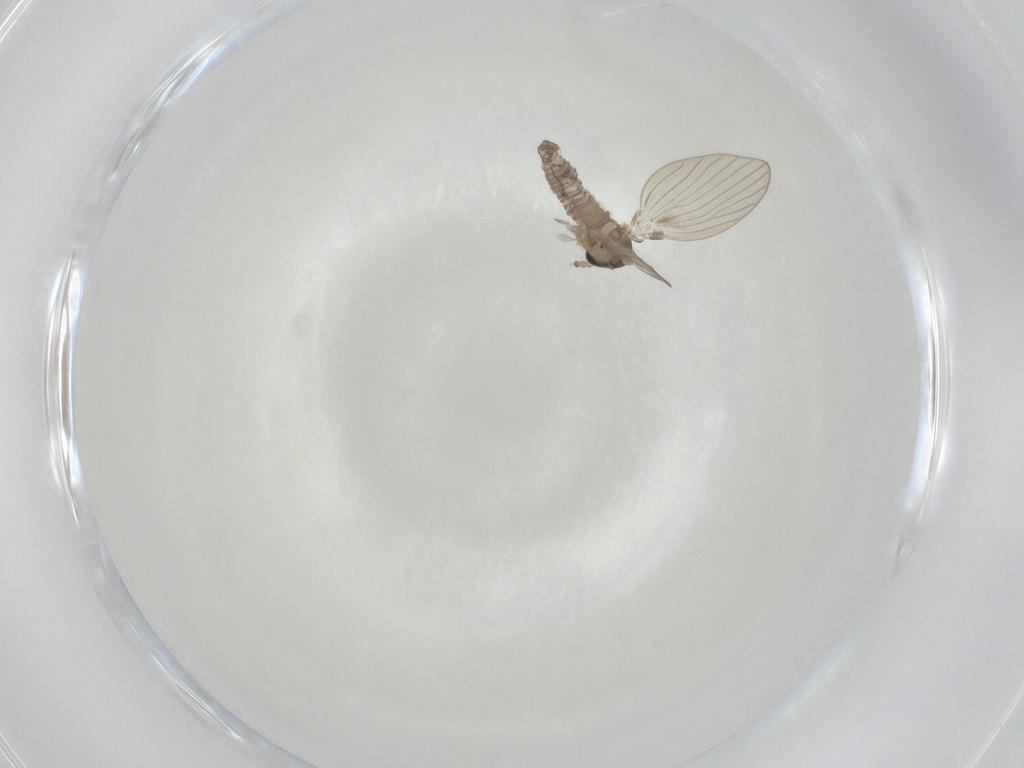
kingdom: Animalia
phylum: Arthropoda
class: Insecta
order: Diptera
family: Psychodidae
